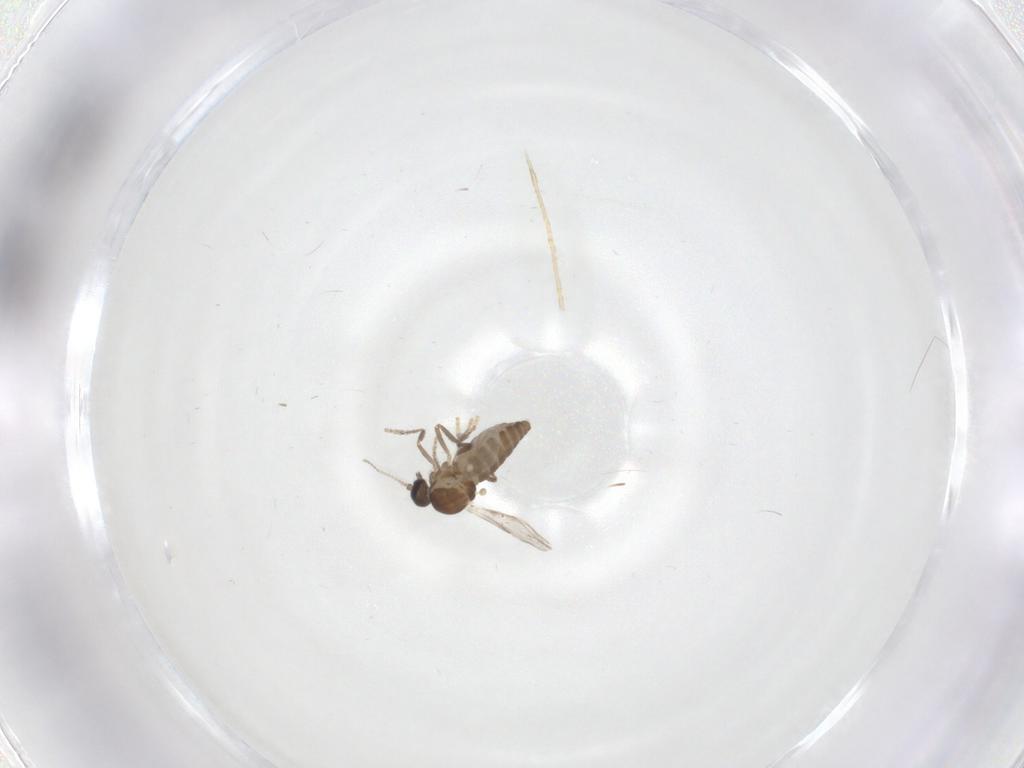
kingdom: Animalia
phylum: Arthropoda
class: Insecta
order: Diptera
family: Ceratopogonidae
